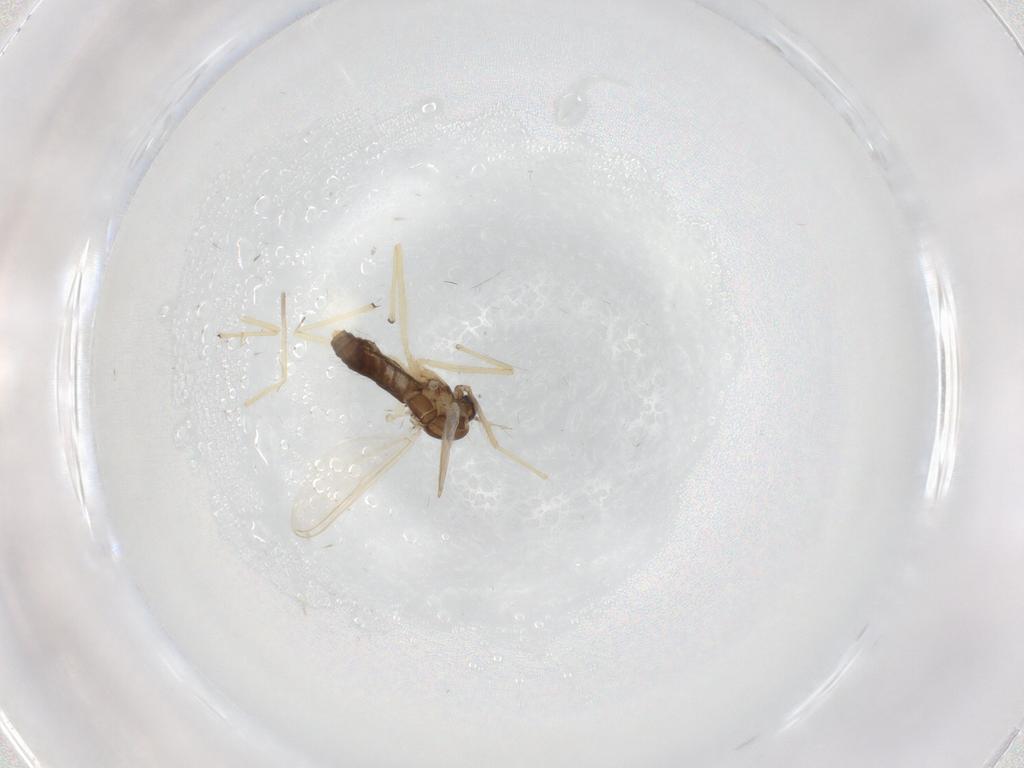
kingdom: Animalia
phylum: Arthropoda
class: Insecta
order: Diptera
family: Chironomidae
